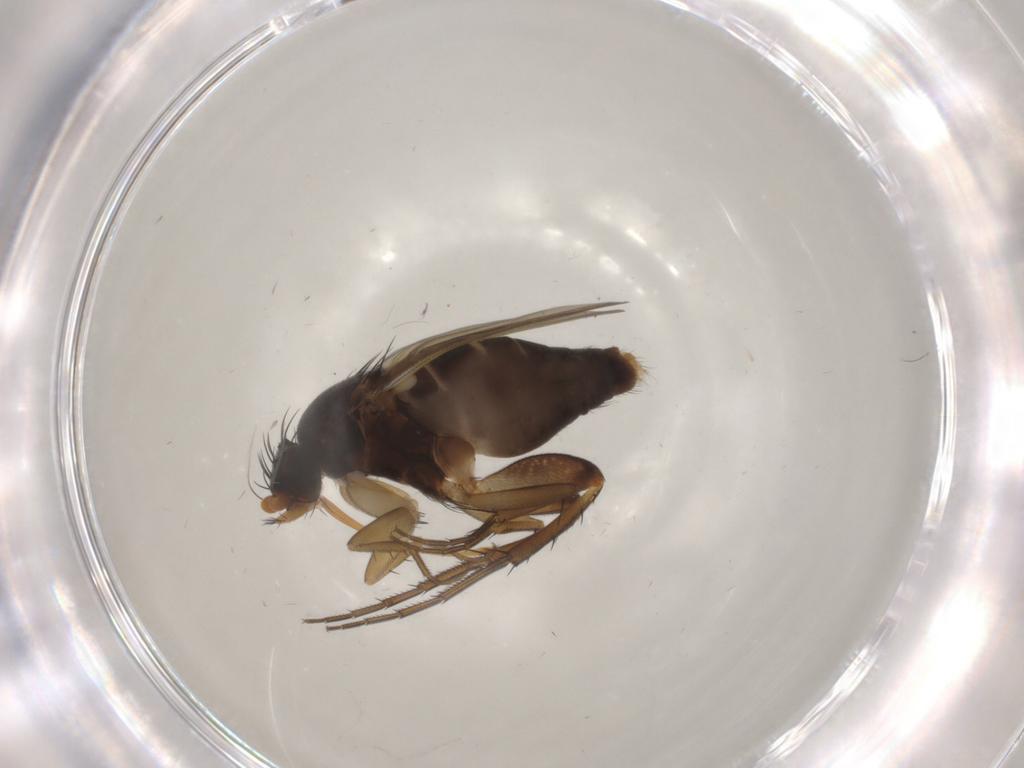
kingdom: Animalia
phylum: Arthropoda
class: Insecta
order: Diptera
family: Phoridae
